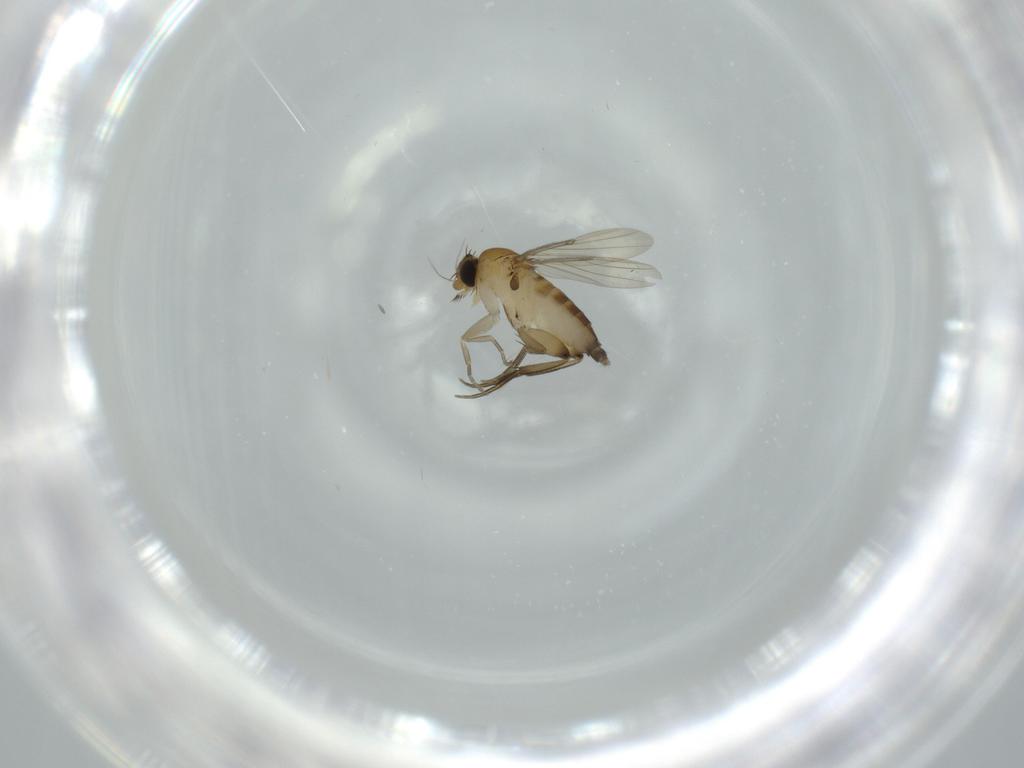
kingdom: Animalia
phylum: Arthropoda
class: Insecta
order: Diptera
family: Phoridae
